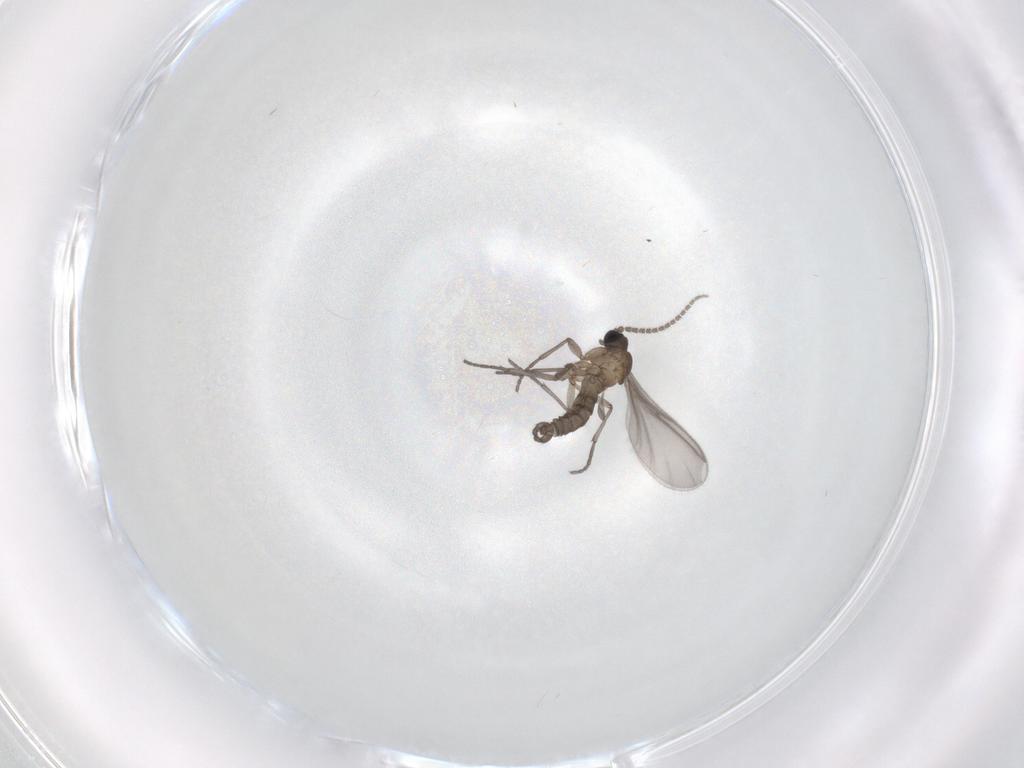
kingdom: Animalia
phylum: Arthropoda
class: Insecta
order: Diptera
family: Sciaridae
